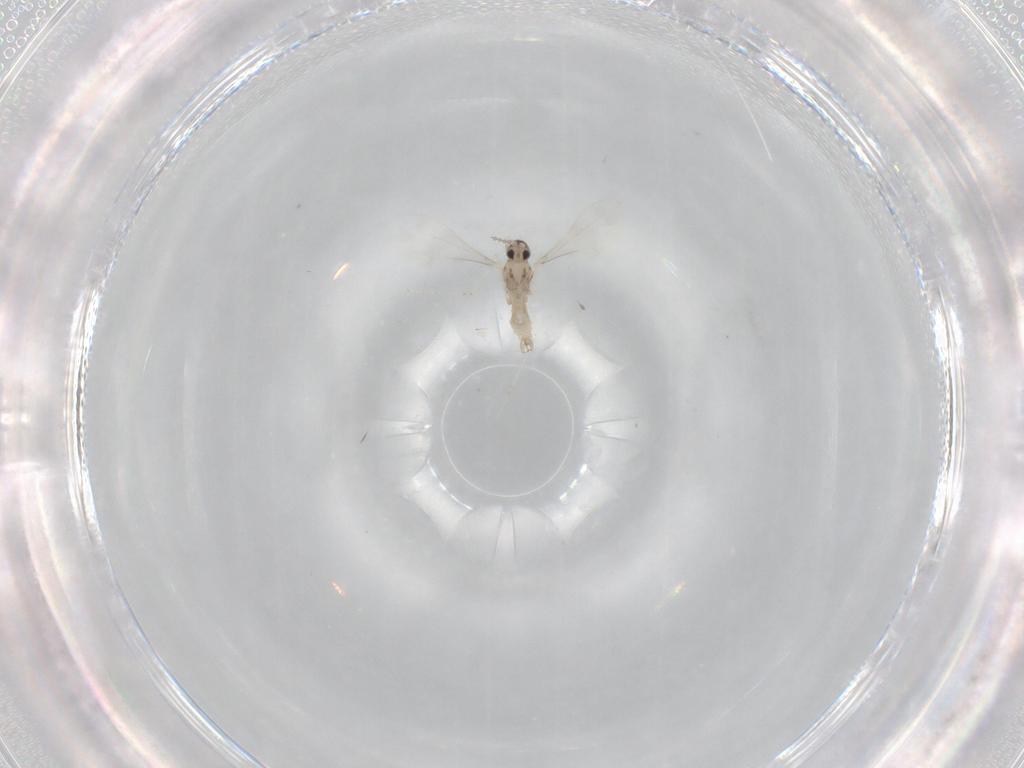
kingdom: Animalia
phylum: Arthropoda
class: Insecta
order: Diptera
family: Cecidomyiidae
